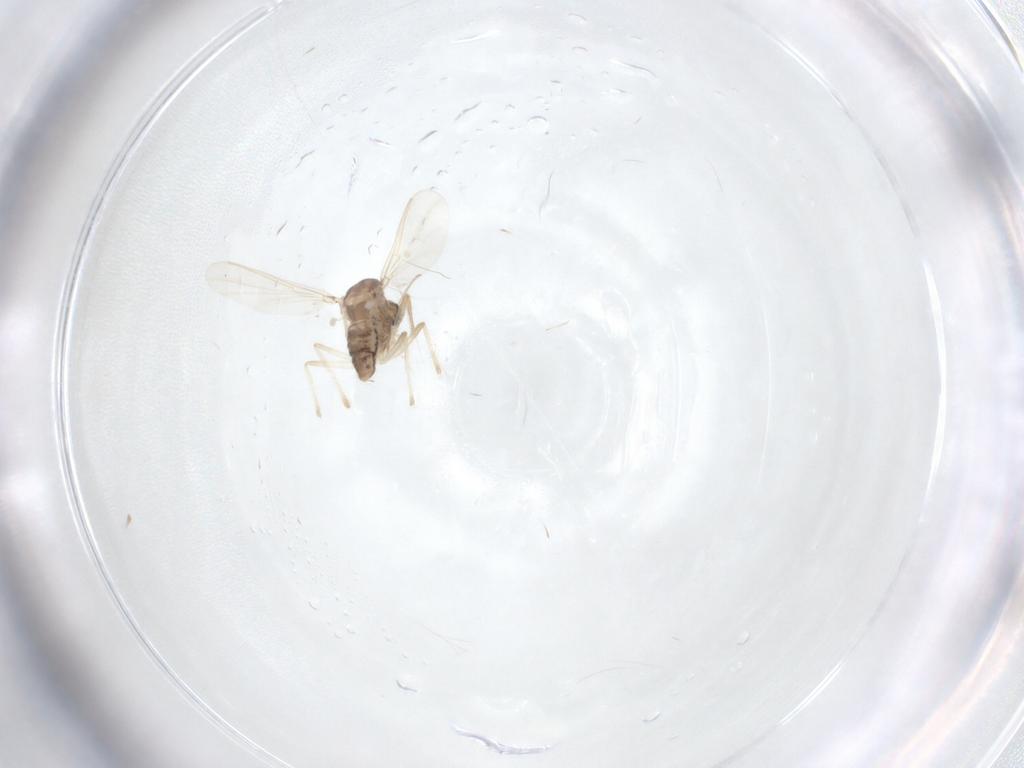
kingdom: Animalia
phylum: Arthropoda
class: Insecta
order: Diptera
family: Chironomidae
